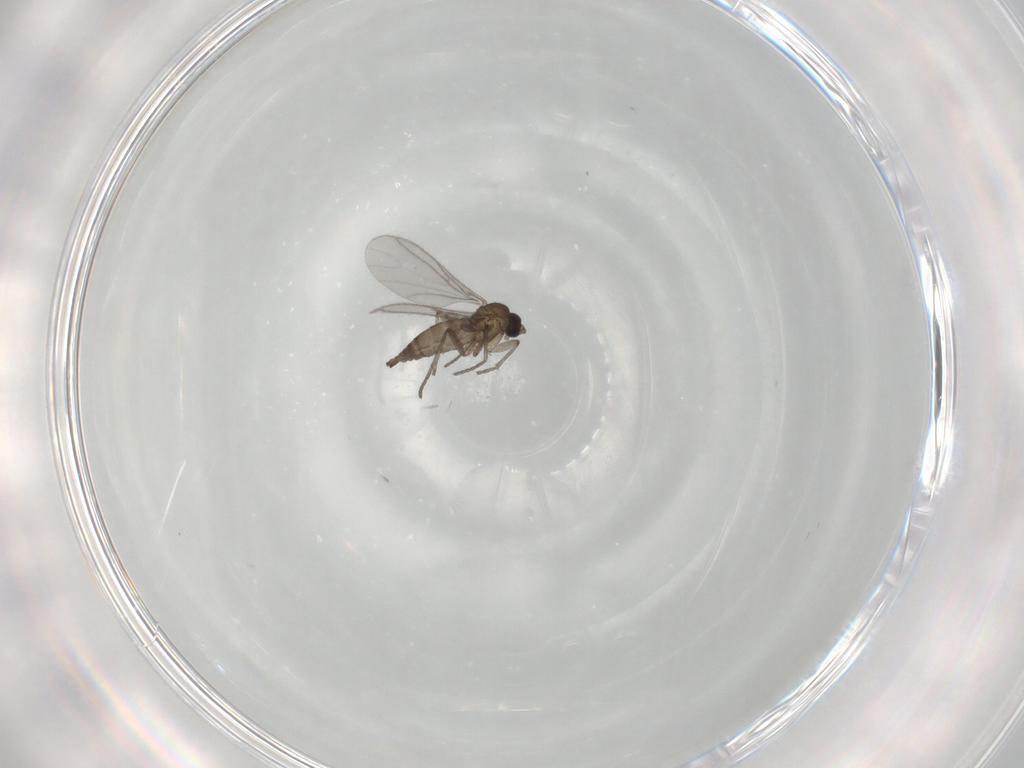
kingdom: Animalia
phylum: Arthropoda
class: Insecta
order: Diptera
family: Sciaridae
